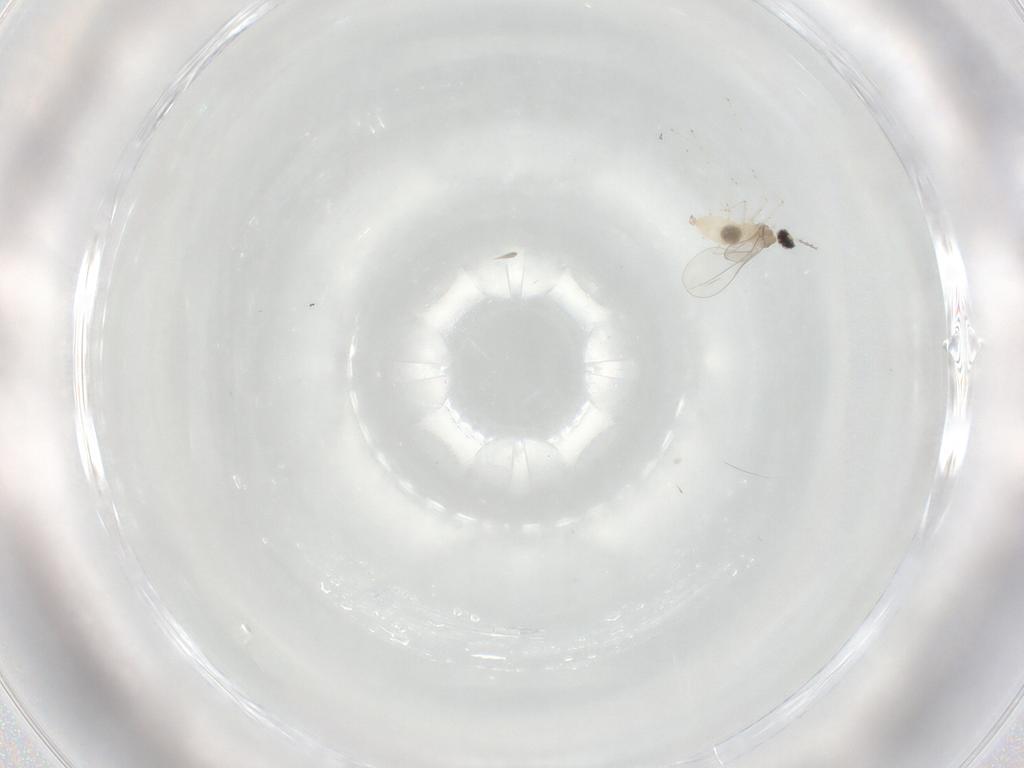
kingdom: Animalia
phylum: Arthropoda
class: Insecta
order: Diptera
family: Cecidomyiidae
